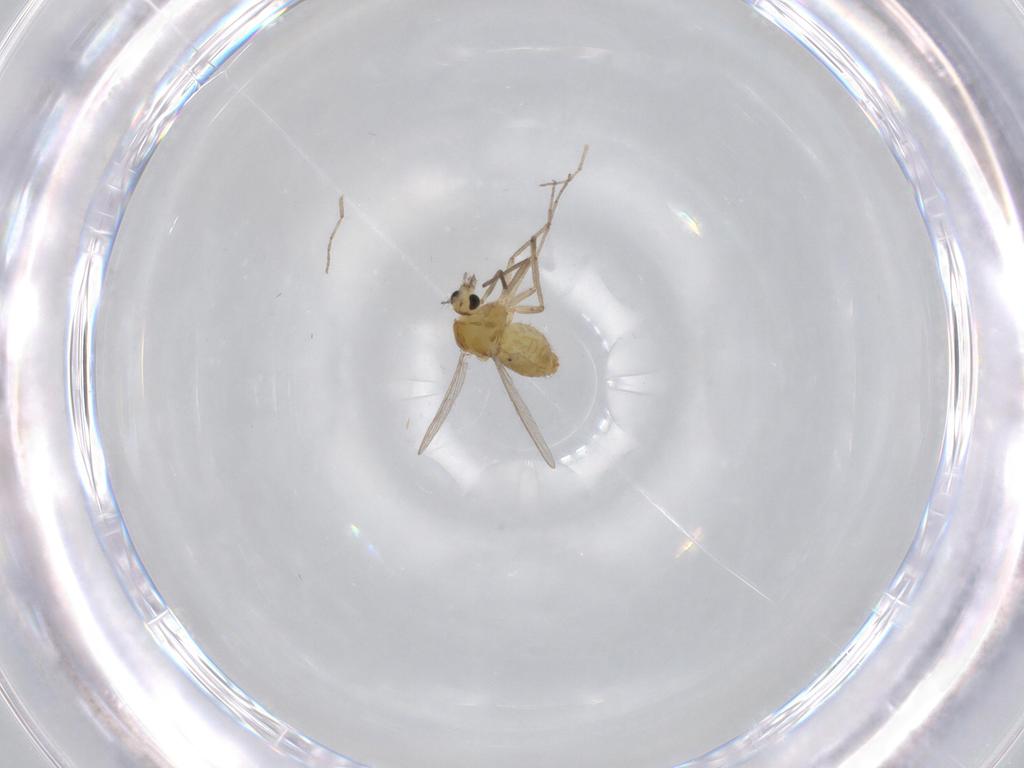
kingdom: Animalia
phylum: Arthropoda
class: Insecta
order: Diptera
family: Chironomidae
